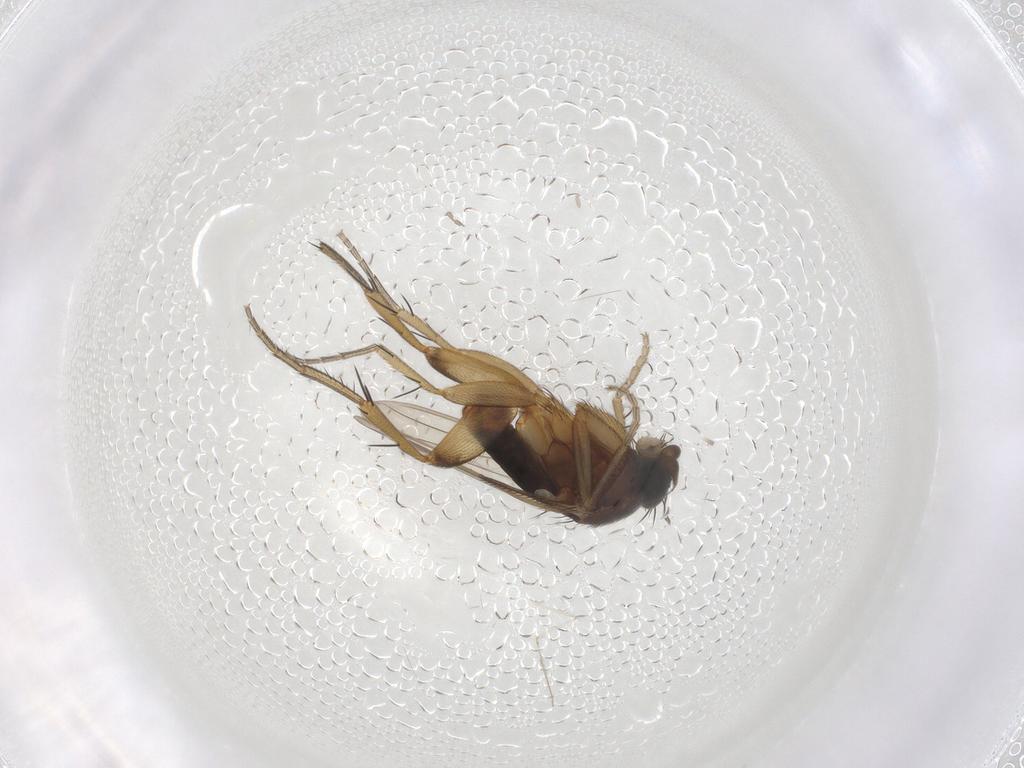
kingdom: Animalia
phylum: Arthropoda
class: Insecta
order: Diptera
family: Phoridae
